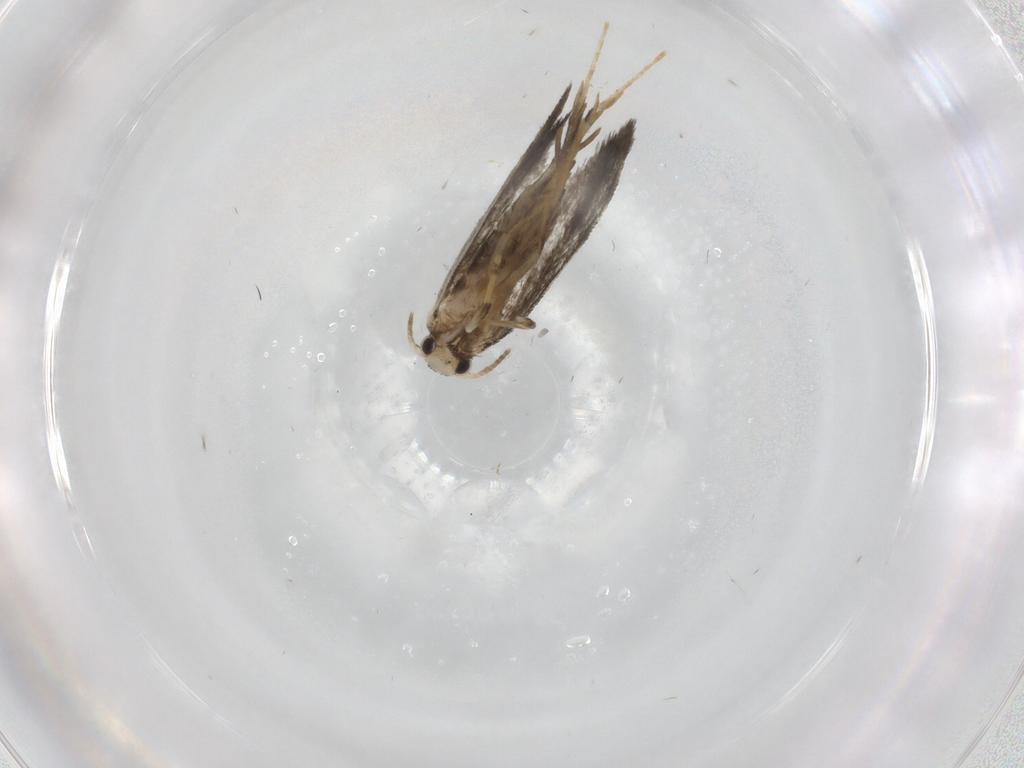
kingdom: Animalia
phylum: Arthropoda
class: Insecta
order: Lepidoptera
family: Psychidae
